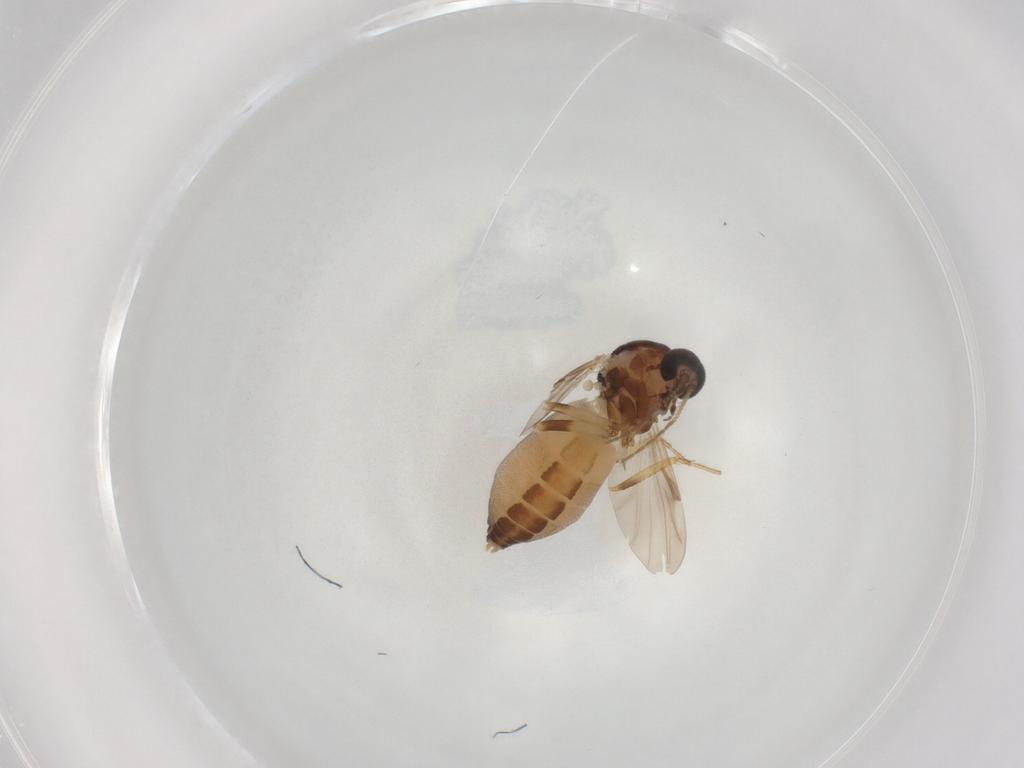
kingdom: Animalia
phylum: Arthropoda
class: Insecta
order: Diptera
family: Ceratopogonidae
